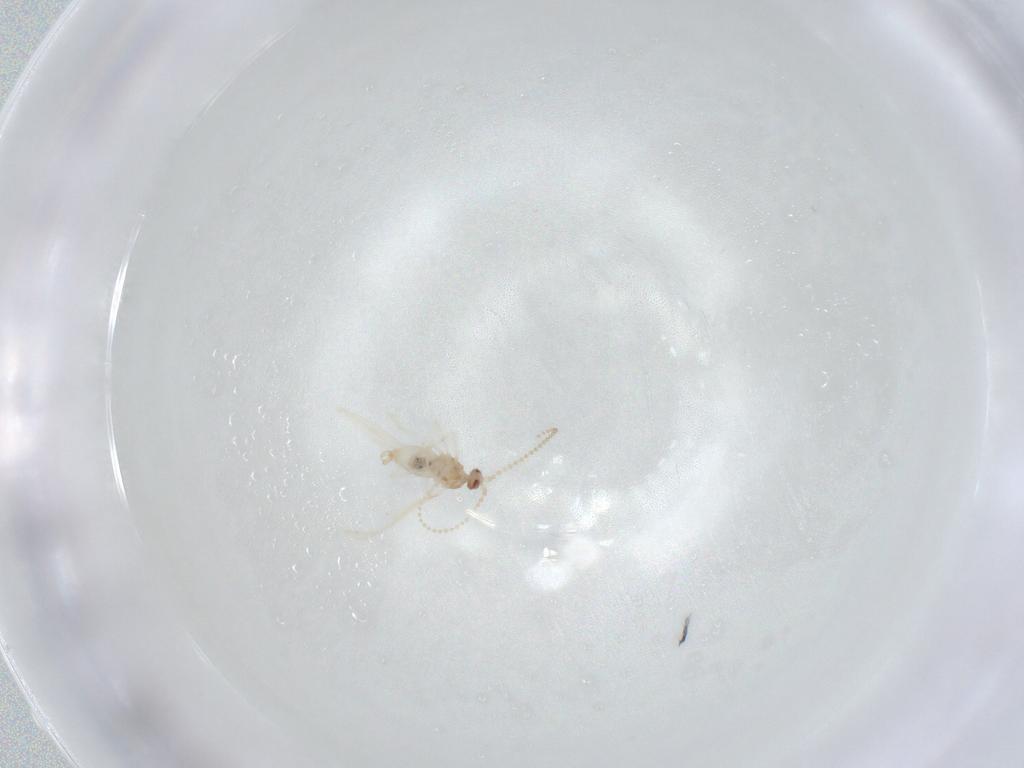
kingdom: Animalia
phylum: Arthropoda
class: Insecta
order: Diptera
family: Cecidomyiidae
